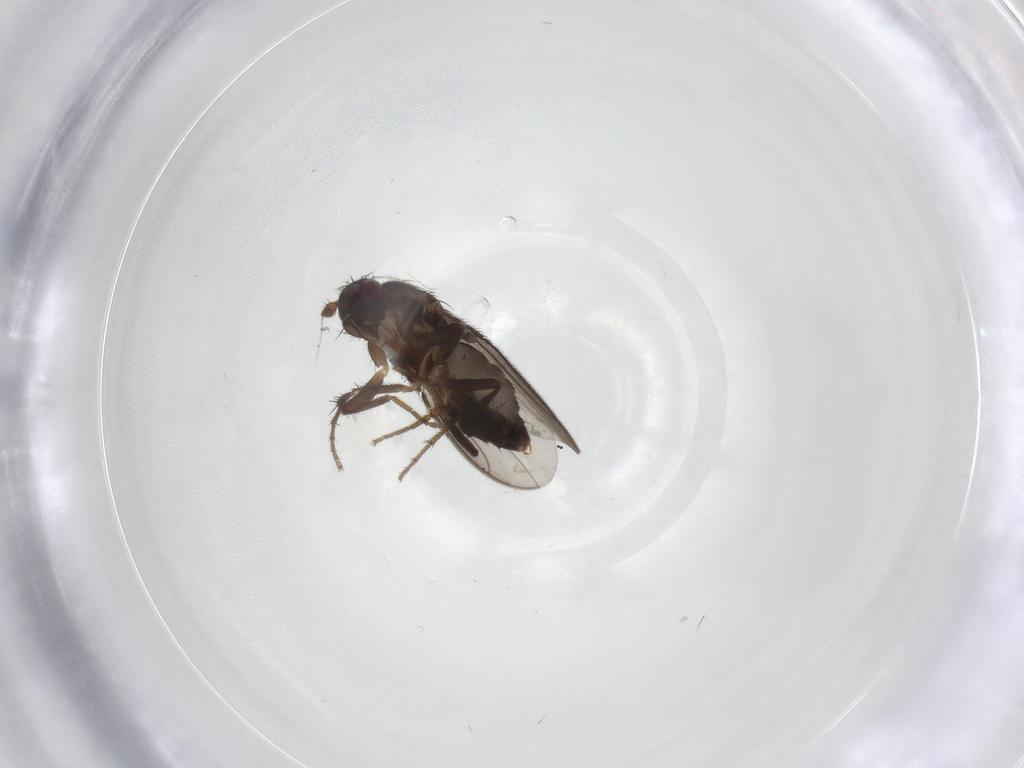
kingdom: Animalia
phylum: Arthropoda
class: Insecta
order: Diptera
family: Sphaeroceridae
